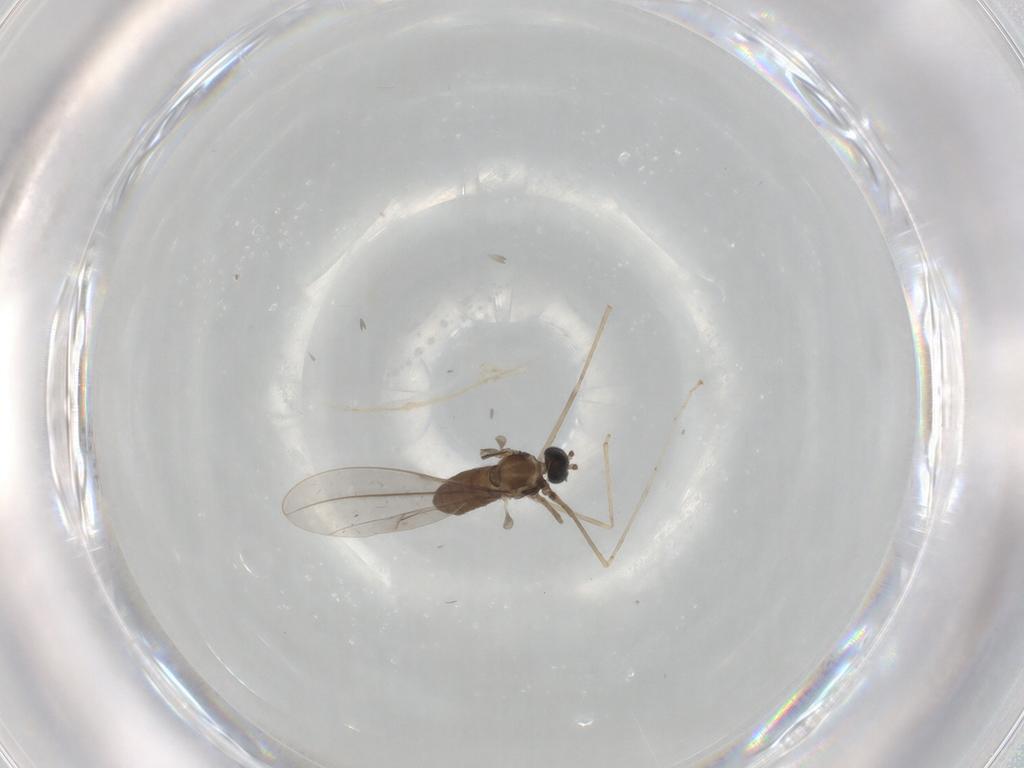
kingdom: Animalia
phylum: Arthropoda
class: Insecta
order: Diptera
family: Cecidomyiidae
